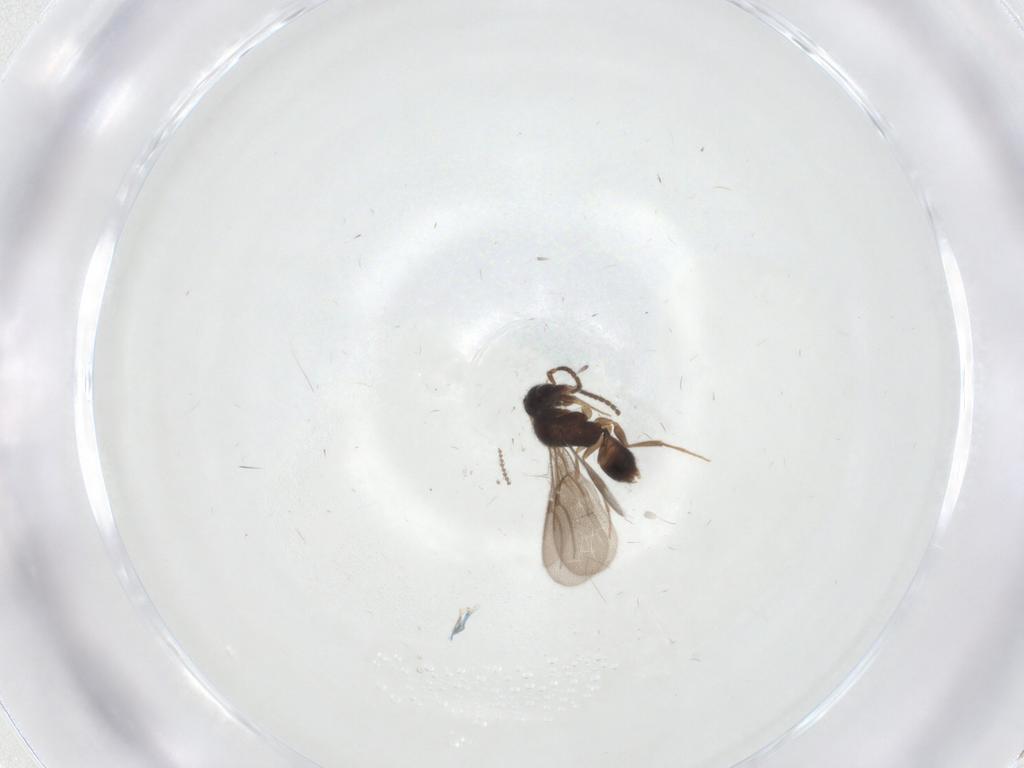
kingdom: Animalia
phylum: Arthropoda
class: Insecta
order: Hymenoptera
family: Bethylidae
